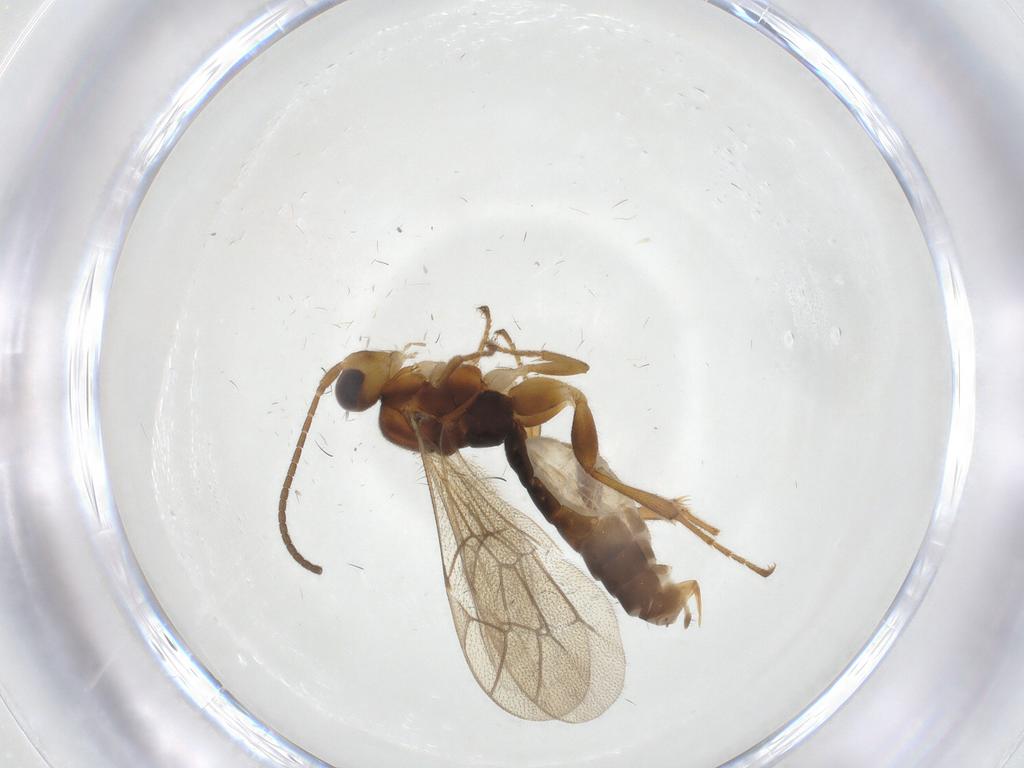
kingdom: Animalia
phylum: Arthropoda
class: Insecta
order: Hymenoptera
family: Ichneumonidae
